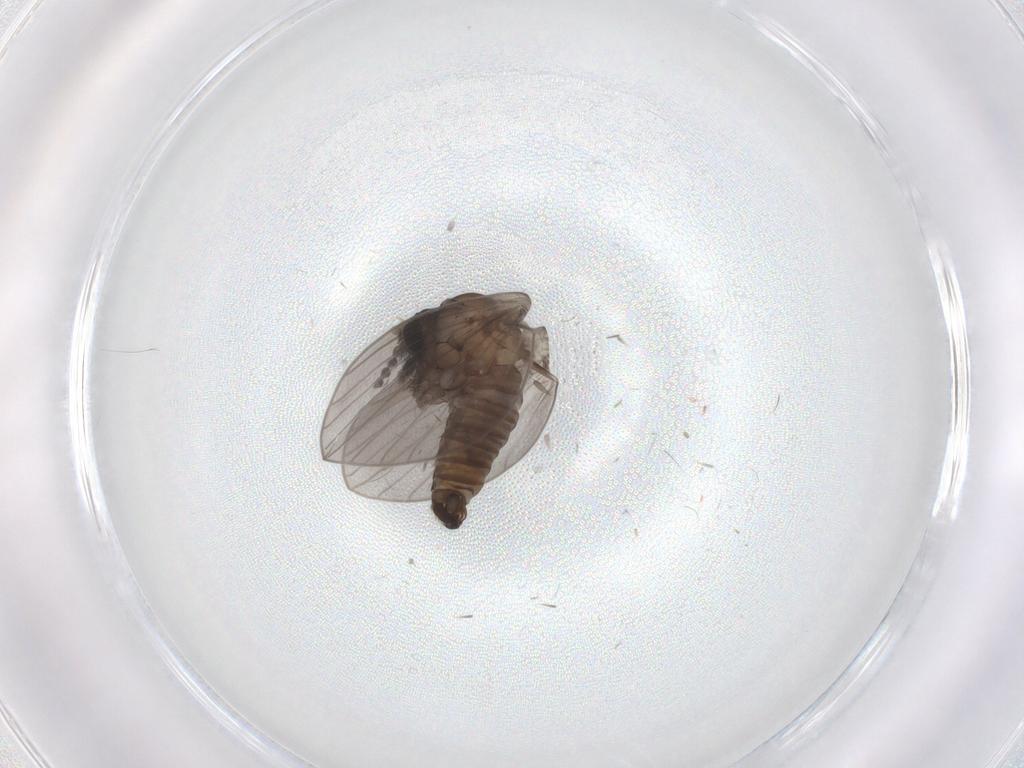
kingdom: Animalia
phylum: Arthropoda
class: Insecta
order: Diptera
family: Psychodidae
